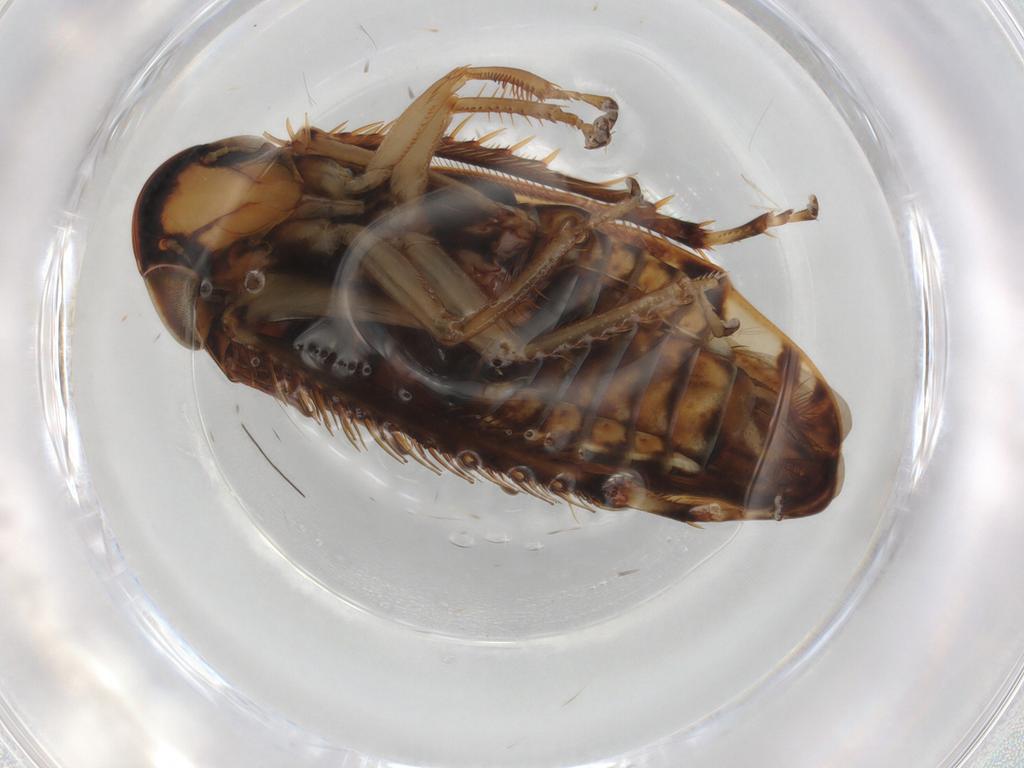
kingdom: Animalia
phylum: Arthropoda
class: Insecta
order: Hemiptera
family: Cicadellidae
